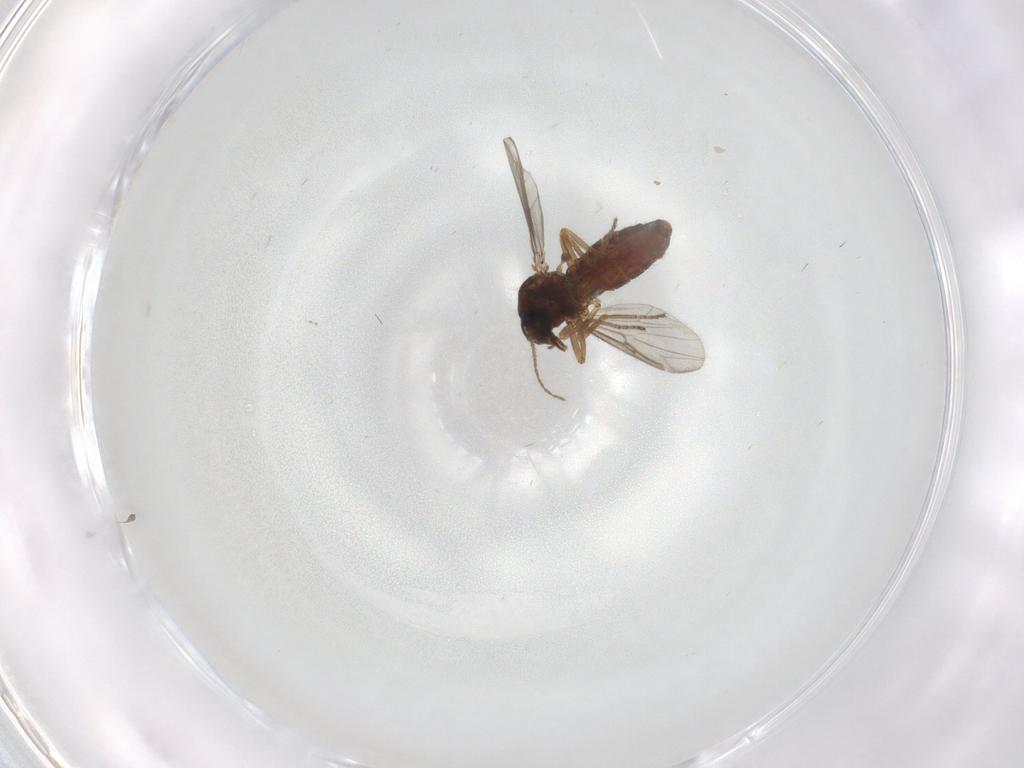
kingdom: Animalia
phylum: Arthropoda
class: Insecta
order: Diptera
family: Sciaridae
